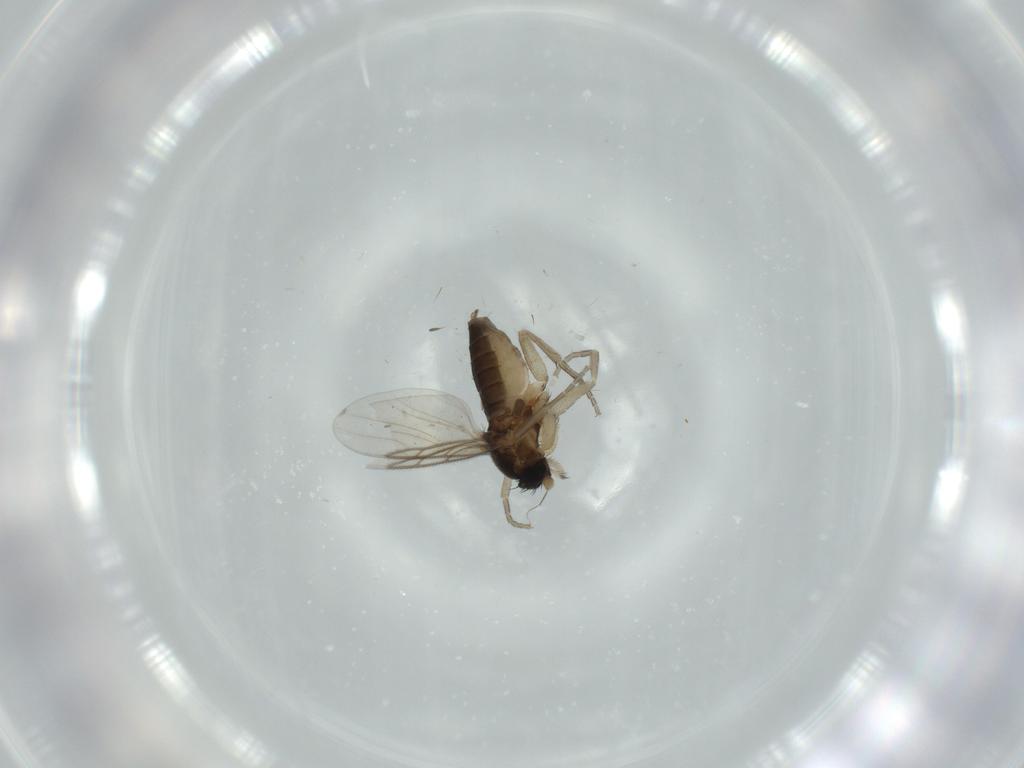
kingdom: Animalia
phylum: Arthropoda
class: Insecta
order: Diptera
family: Phoridae
